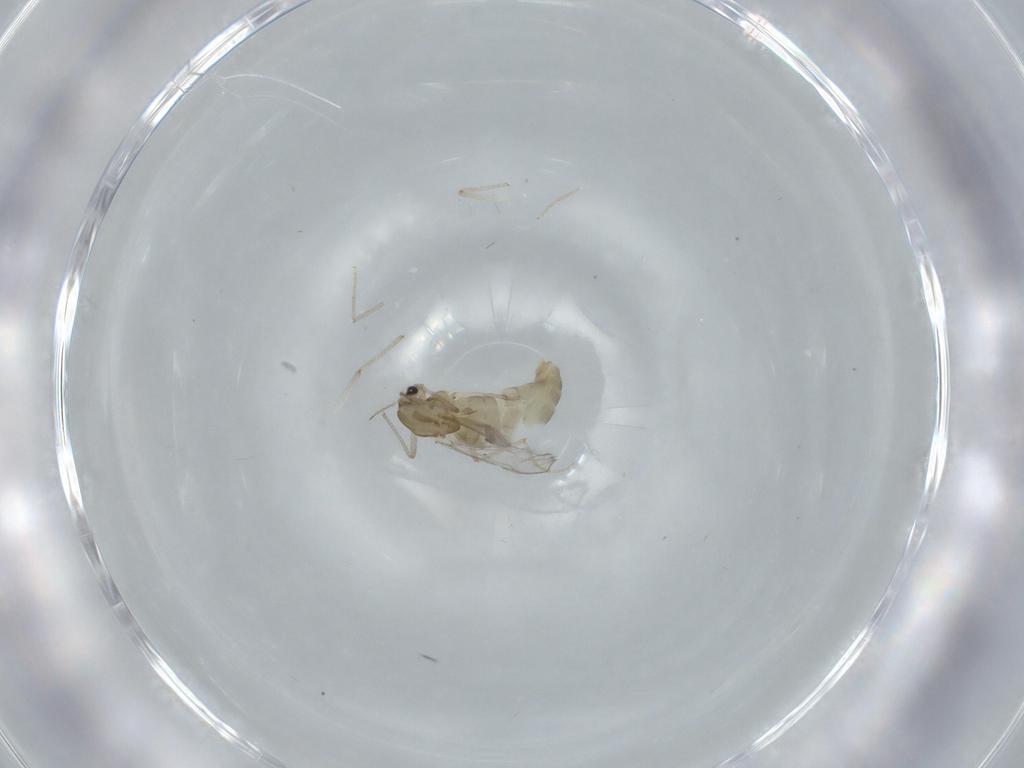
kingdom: Animalia
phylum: Arthropoda
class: Insecta
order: Diptera
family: Chironomidae
